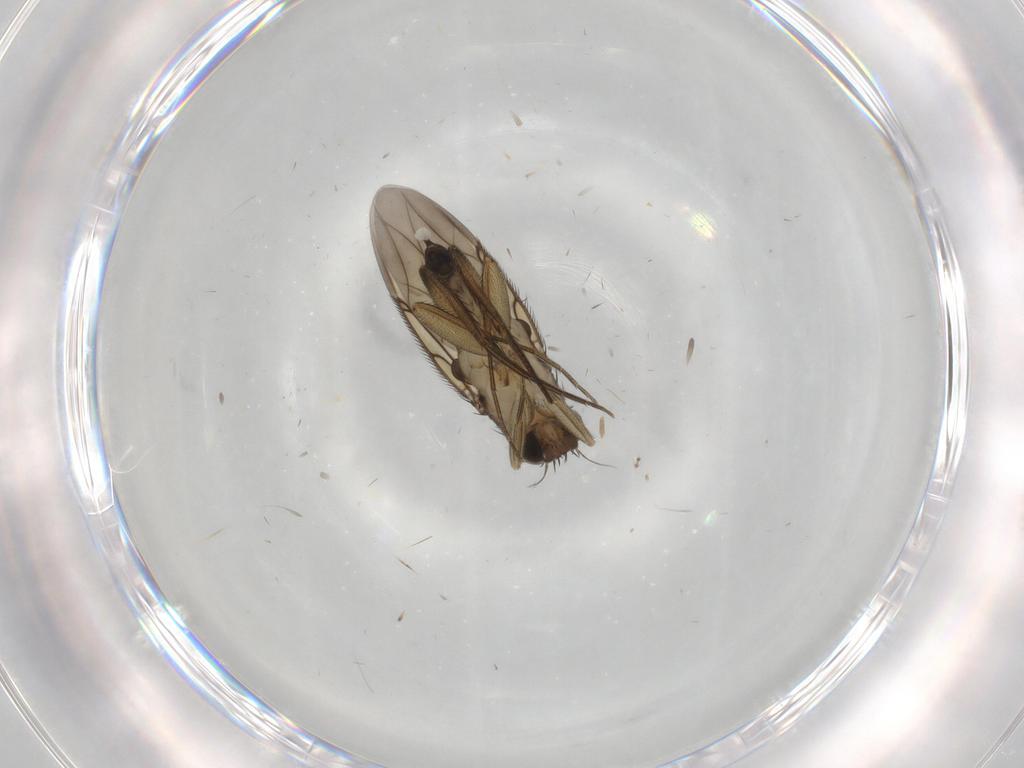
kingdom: Animalia
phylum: Arthropoda
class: Insecta
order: Diptera
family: Cecidomyiidae
